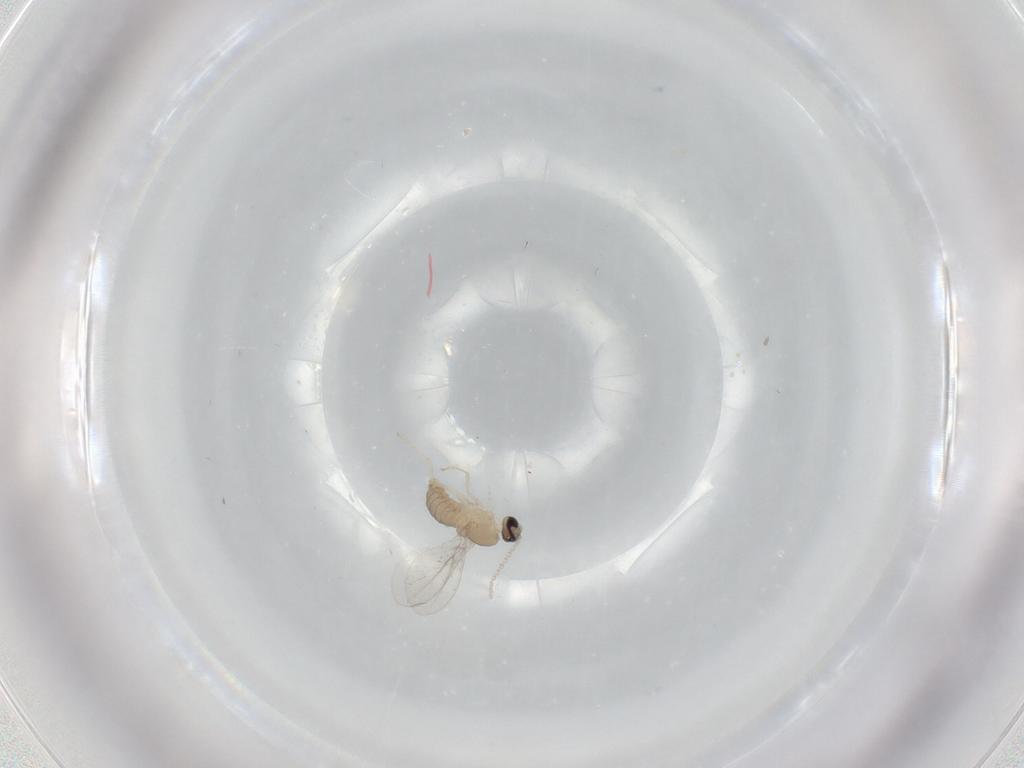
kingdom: Animalia
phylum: Arthropoda
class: Insecta
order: Diptera
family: Cecidomyiidae
